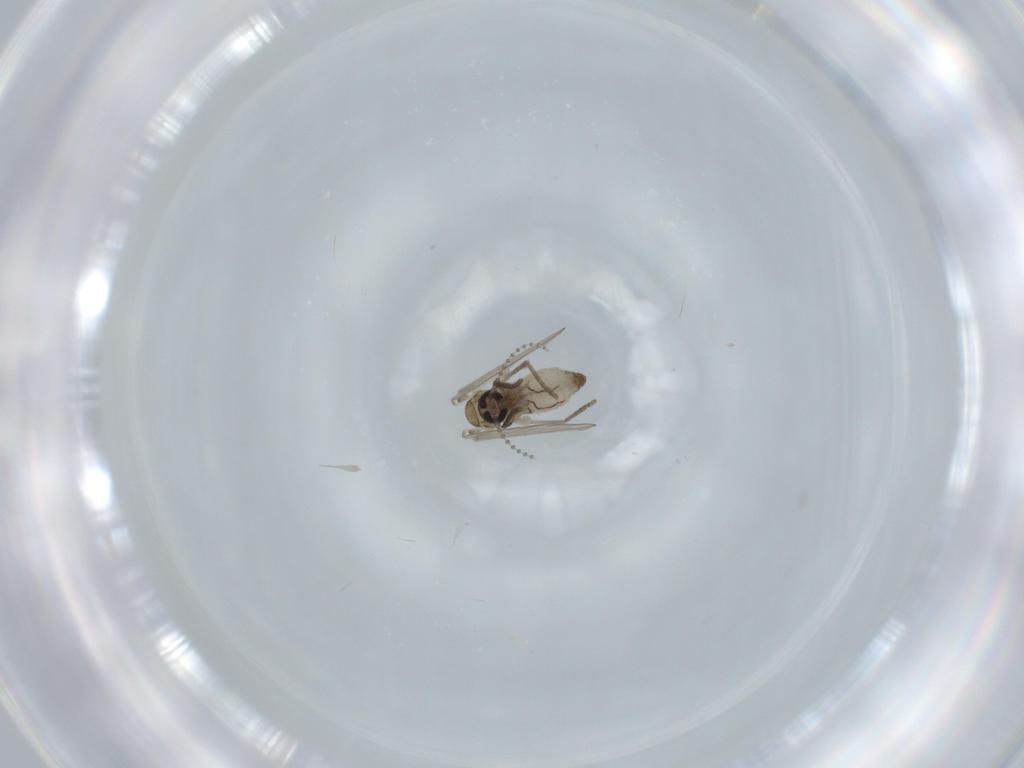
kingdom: Animalia
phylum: Arthropoda
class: Insecta
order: Diptera
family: Psychodidae
